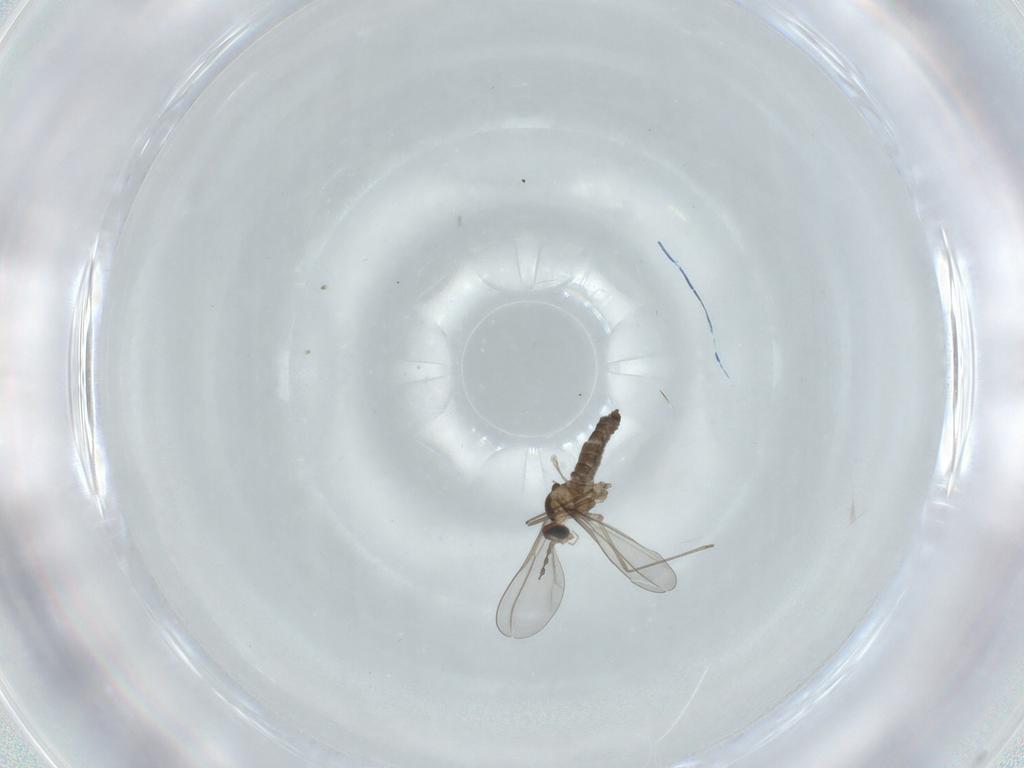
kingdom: Animalia
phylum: Arthropoda
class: Insecta
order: Diptera
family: Cecidomyiidae
